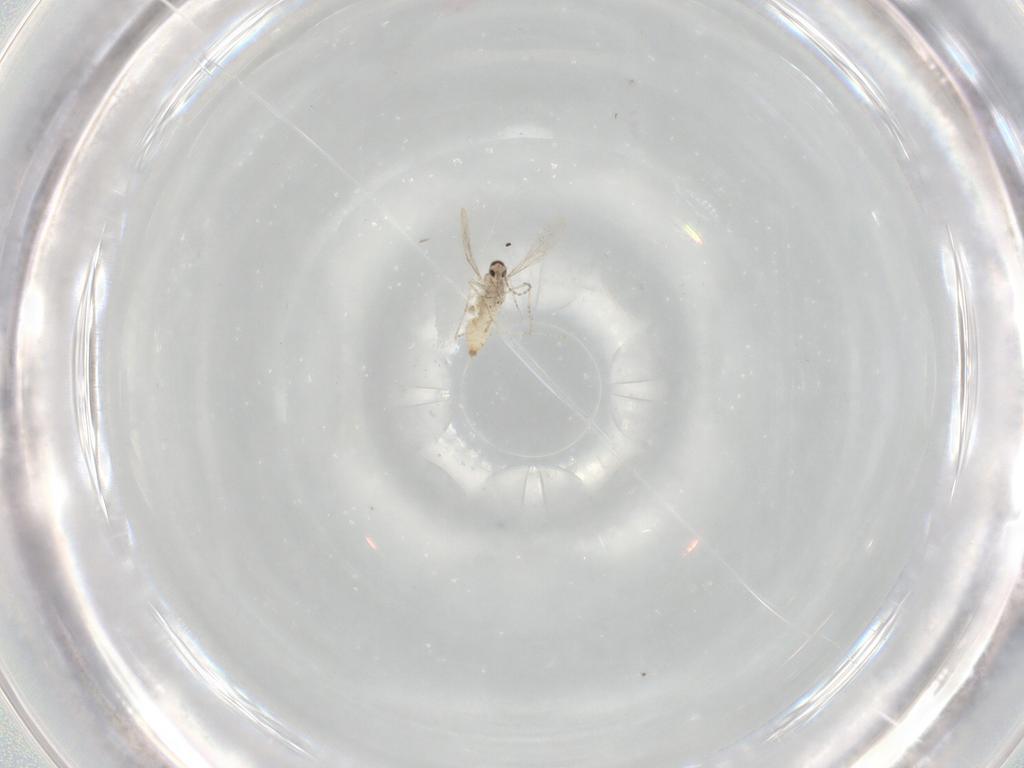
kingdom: Animalia
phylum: Arthropoda
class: Insecta
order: Diptera
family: Cecidomyiidae
